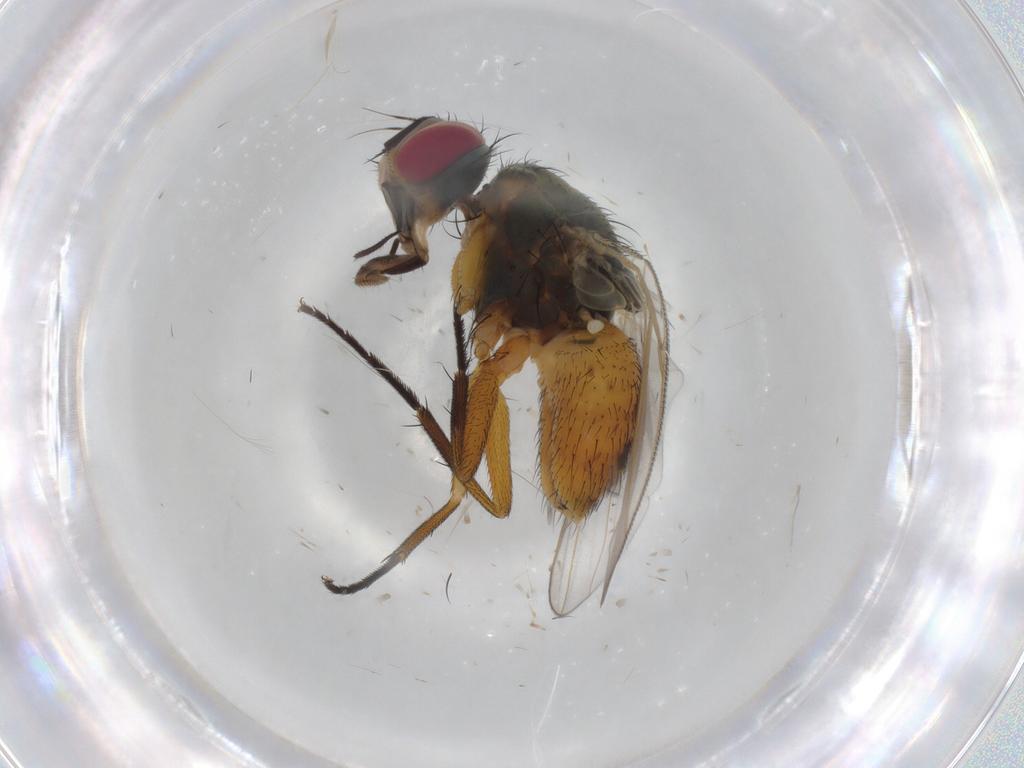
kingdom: Animalia
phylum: Arthropoda
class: Insecta
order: Diptera
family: Muscidae
